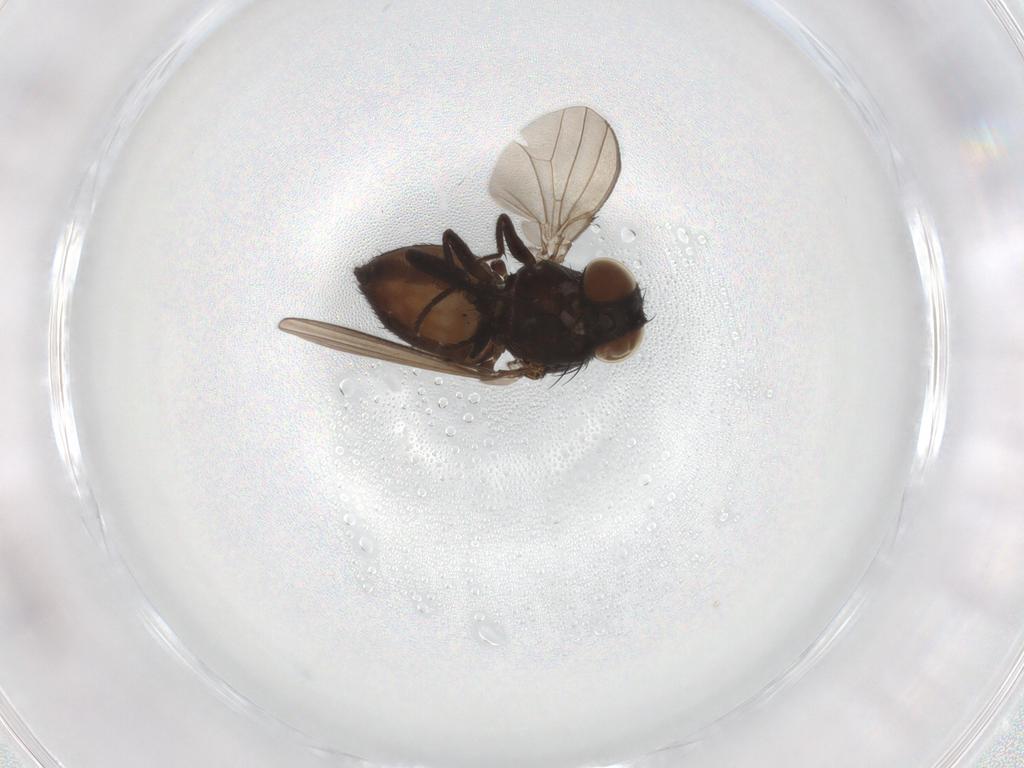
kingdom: Animalia
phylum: Arthropoda
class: Insecta
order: Diptera
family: Milichiidae
